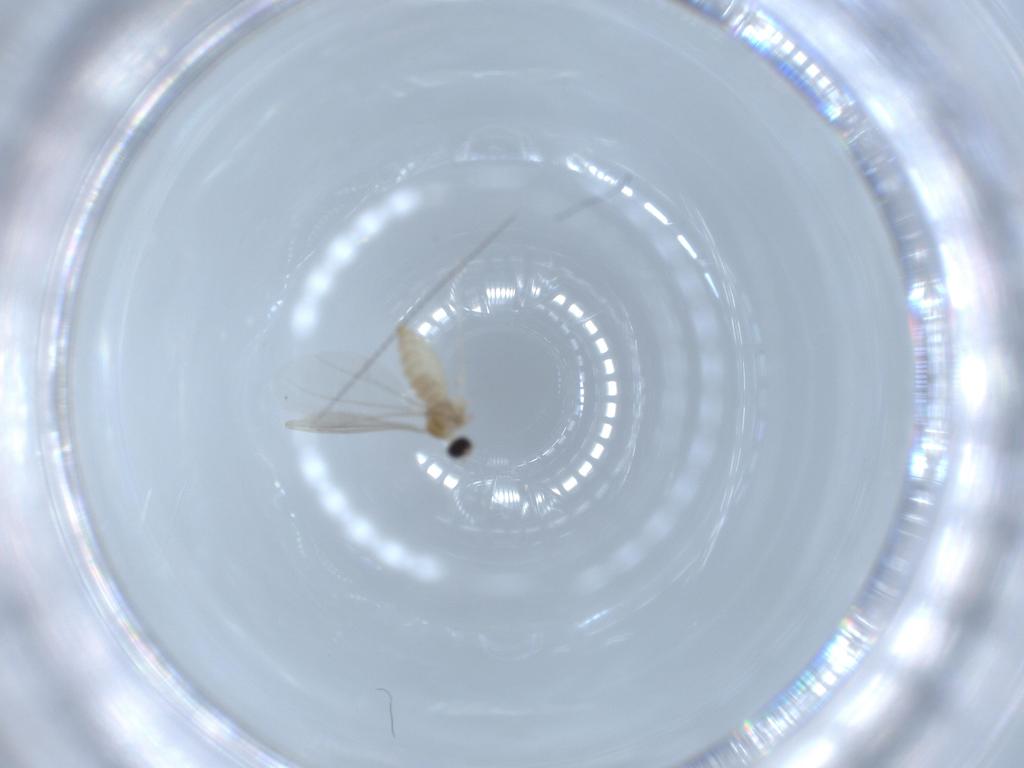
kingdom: Animalia
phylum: Arthropoda
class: Insecta
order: Diptera
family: Cecidomyiidae
